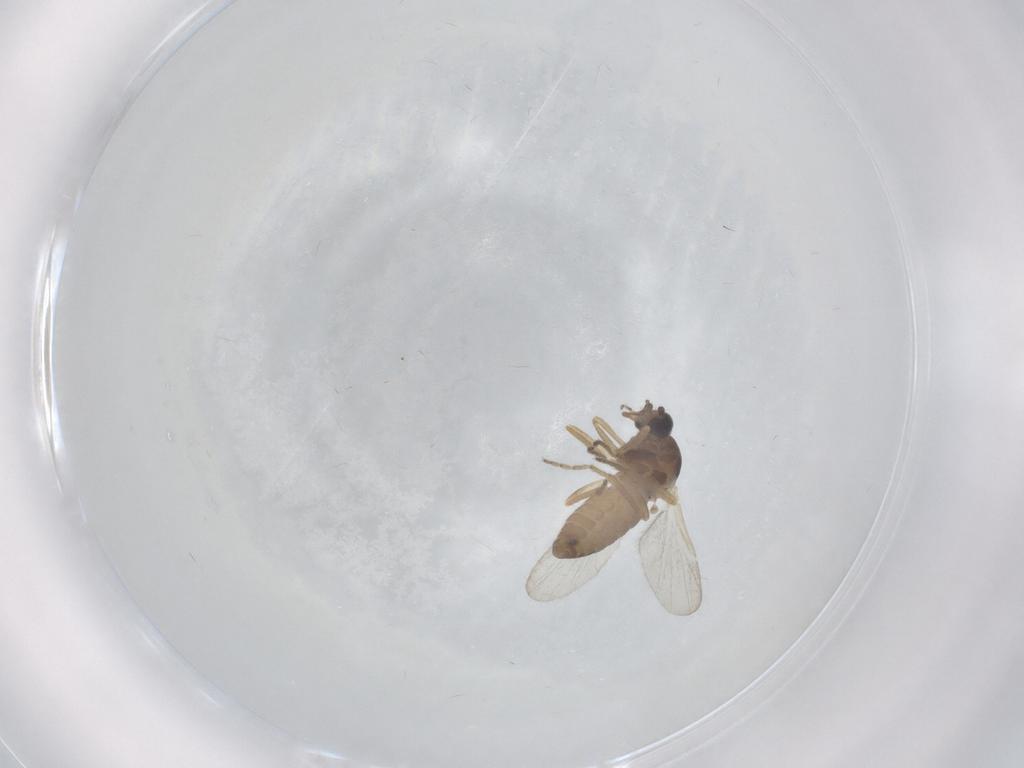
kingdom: Animalia
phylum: Arthropoda
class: Insecta
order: Diptera
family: Ceratopogonidae
